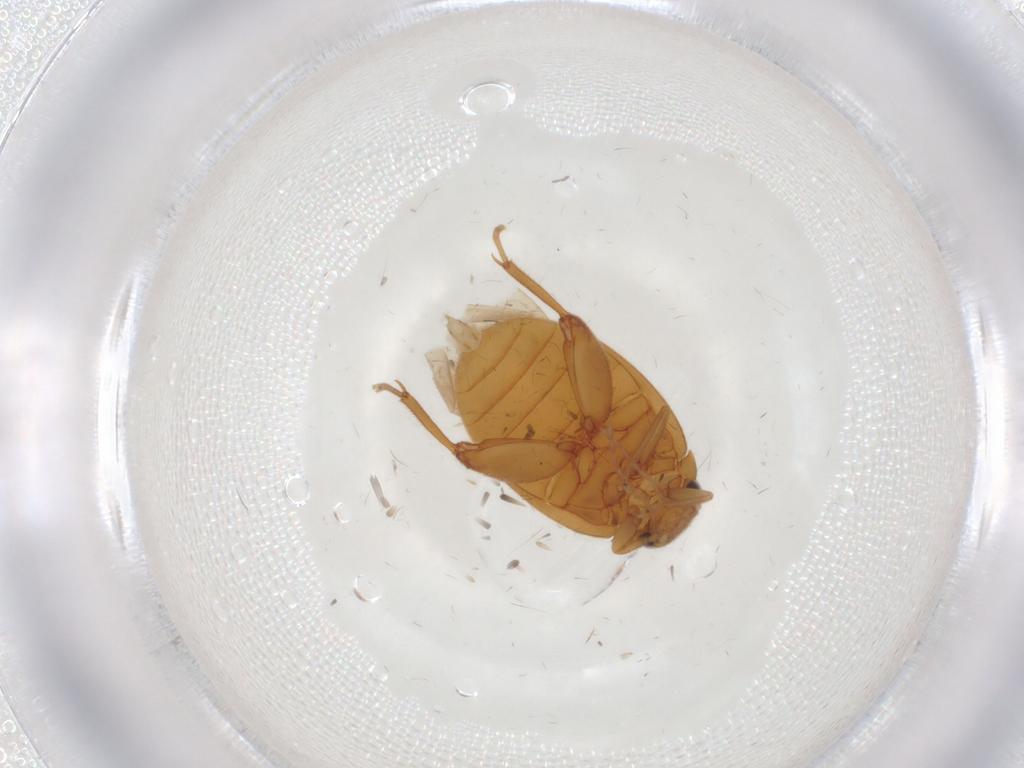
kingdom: Animalia
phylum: Arthropoda
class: Insecta
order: Coleoptera
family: Scirtidae
